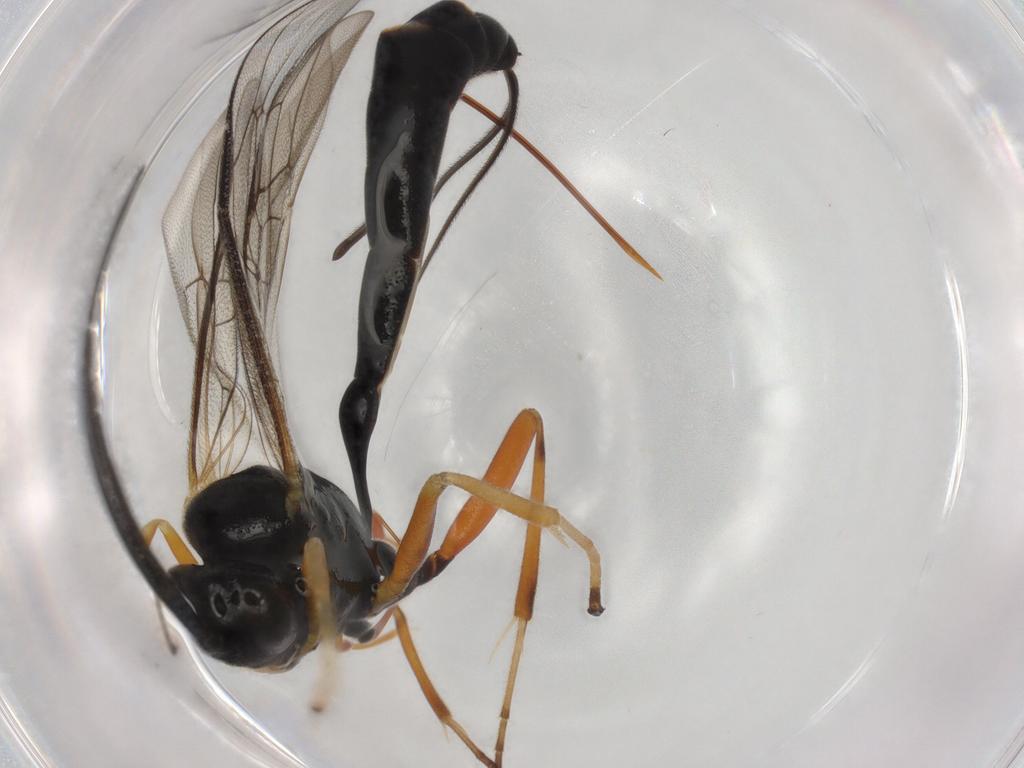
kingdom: Animalia
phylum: Arthropoda
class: Insecta
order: Hymenoptera
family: Ichneumonidae
